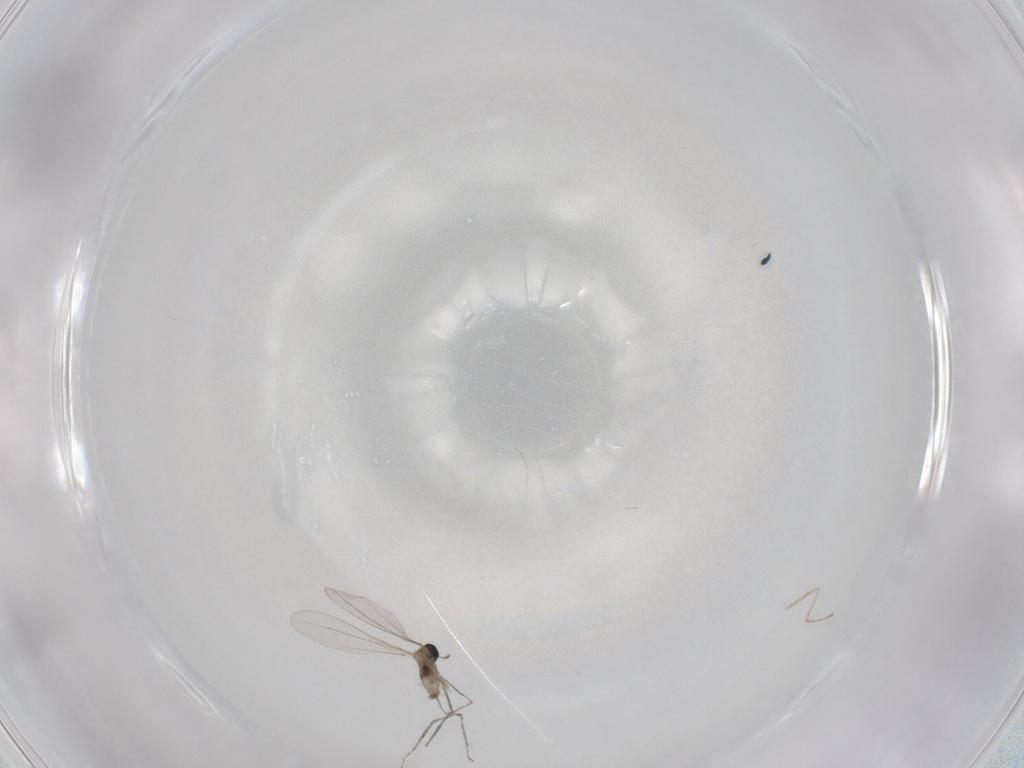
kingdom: Animalia
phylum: Arthropoda
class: Insecta
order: Diptera
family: Cecidomyiidae
